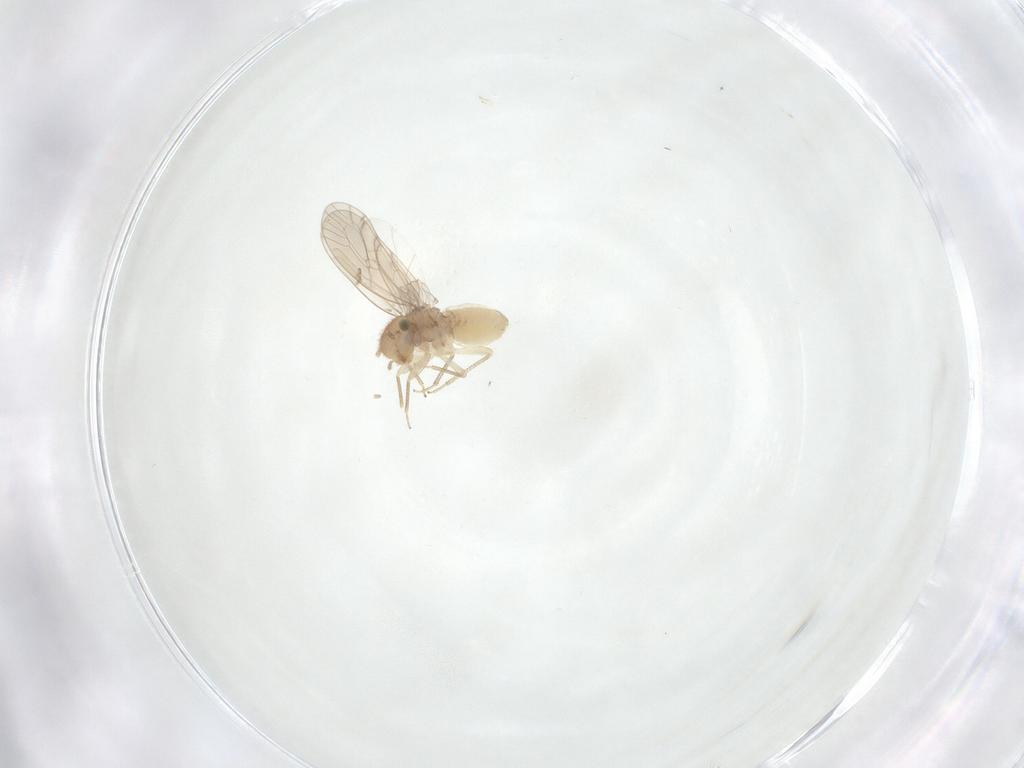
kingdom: Animalia
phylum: Arthropoda
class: Insecta
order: Psocodea
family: Ectopsocidae
